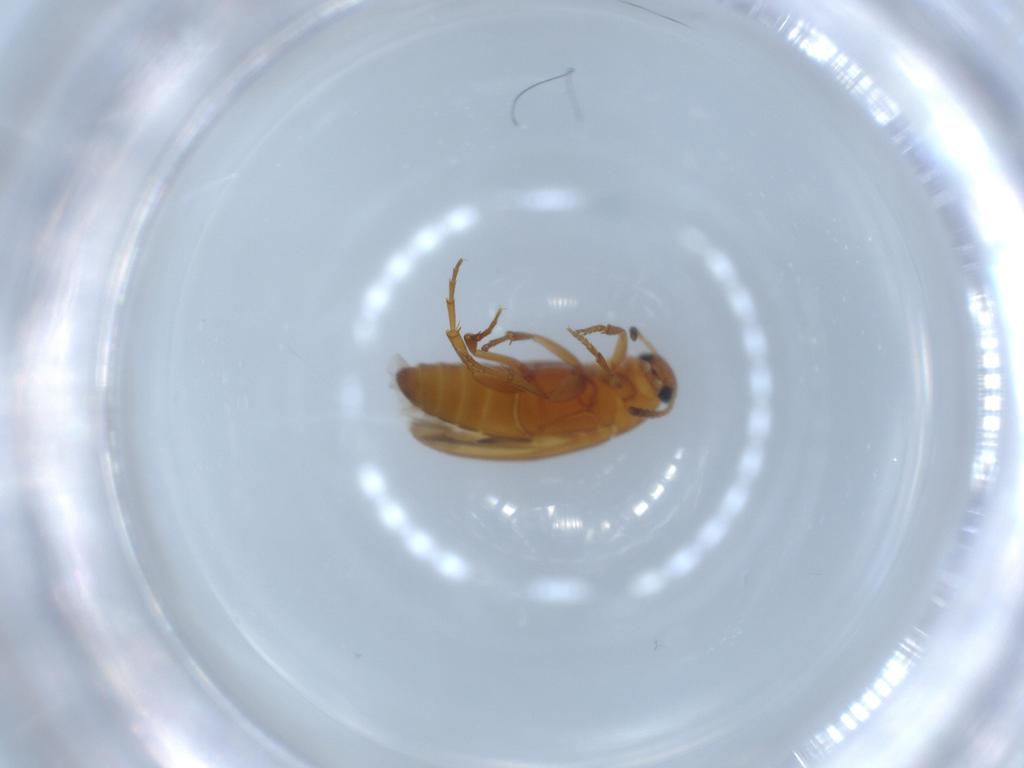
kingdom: Animalia
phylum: Arthropoda
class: Insecta
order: Coleoptera
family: Scraptiidae
